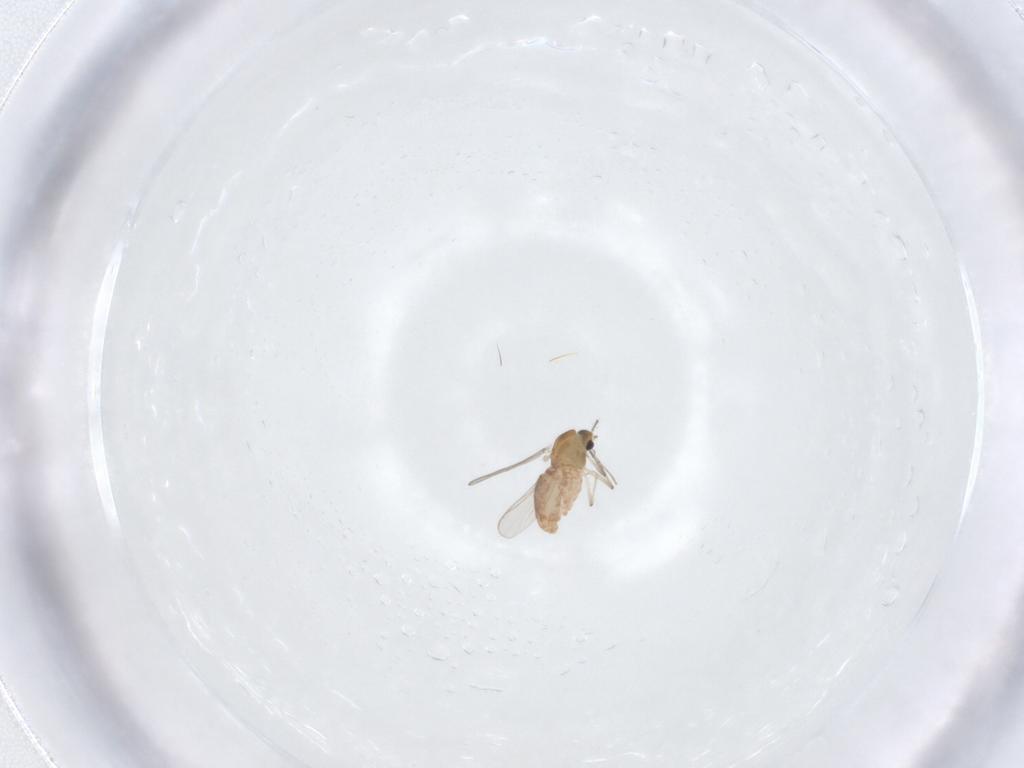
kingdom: Animalia
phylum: Arthropoda
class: Insecta
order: Diptera
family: Chironomidae
